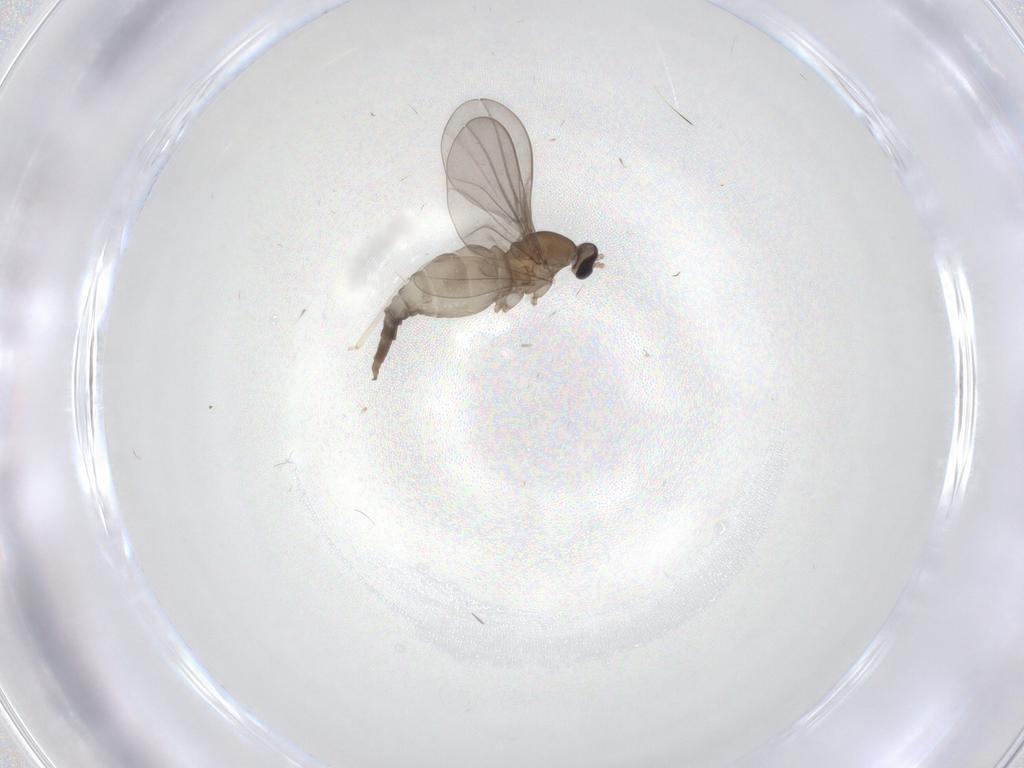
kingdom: Animalia
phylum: Arthropoda
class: Insecta
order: Diptera
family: Cecidomyiidae
